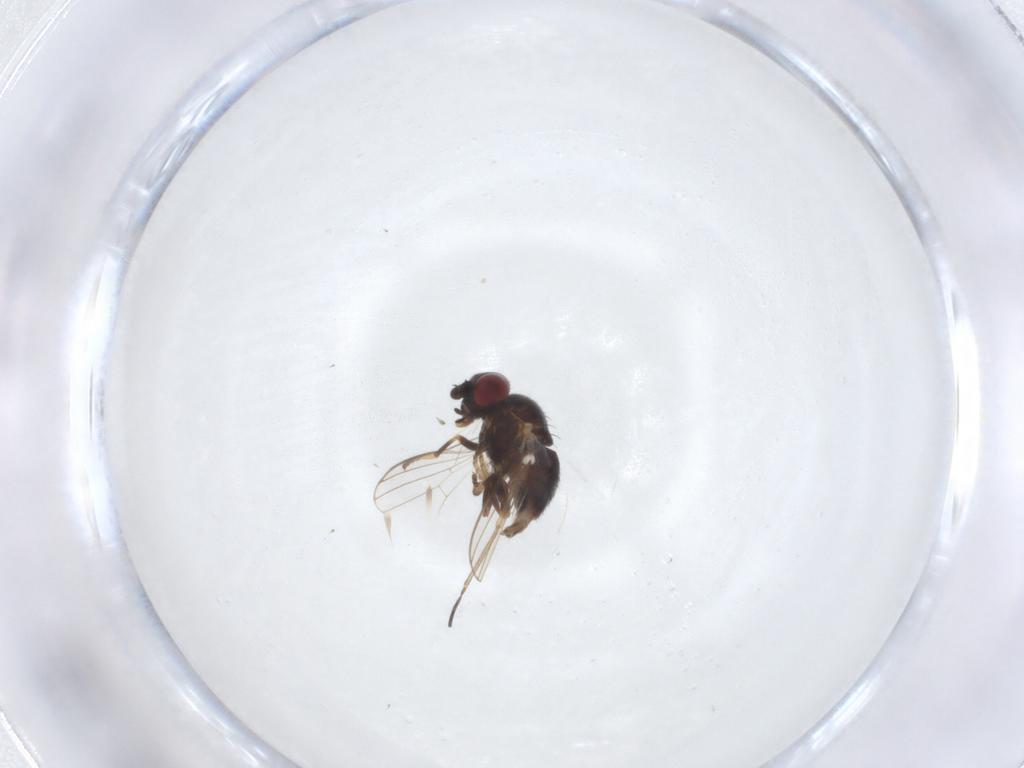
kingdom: Animalia
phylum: Arthropoda
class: Insecta
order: Diptera
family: Chamaemyiidae
